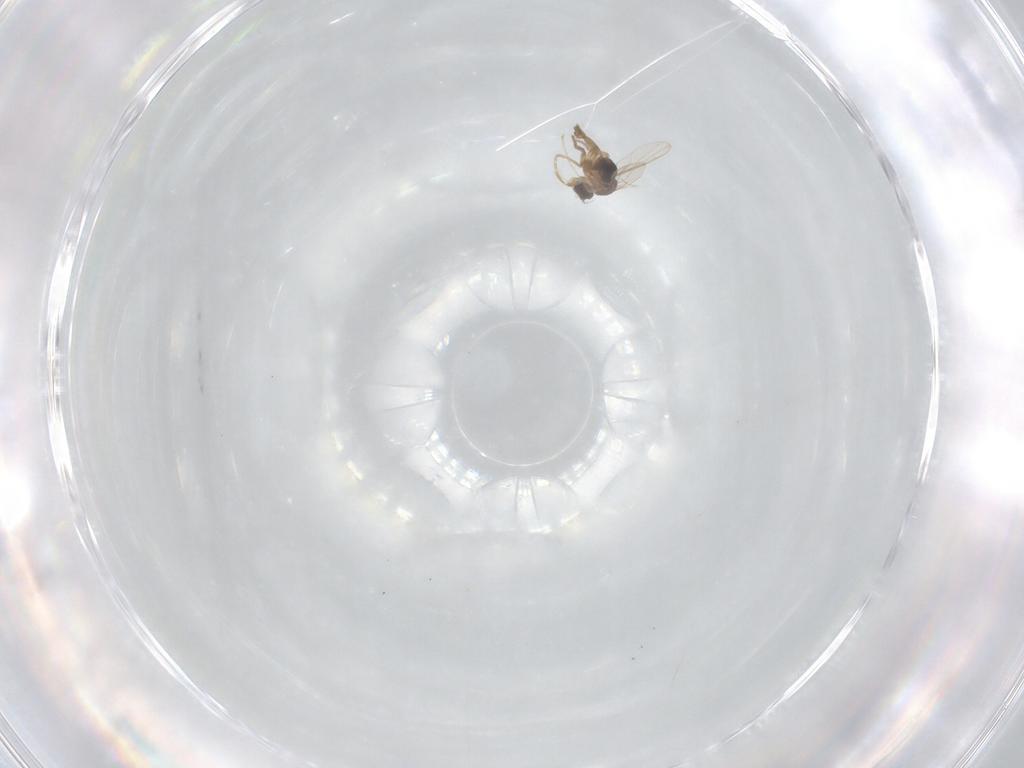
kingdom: Animalia
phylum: Arthropoda
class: Insecta
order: Diptera
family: Phoridae
